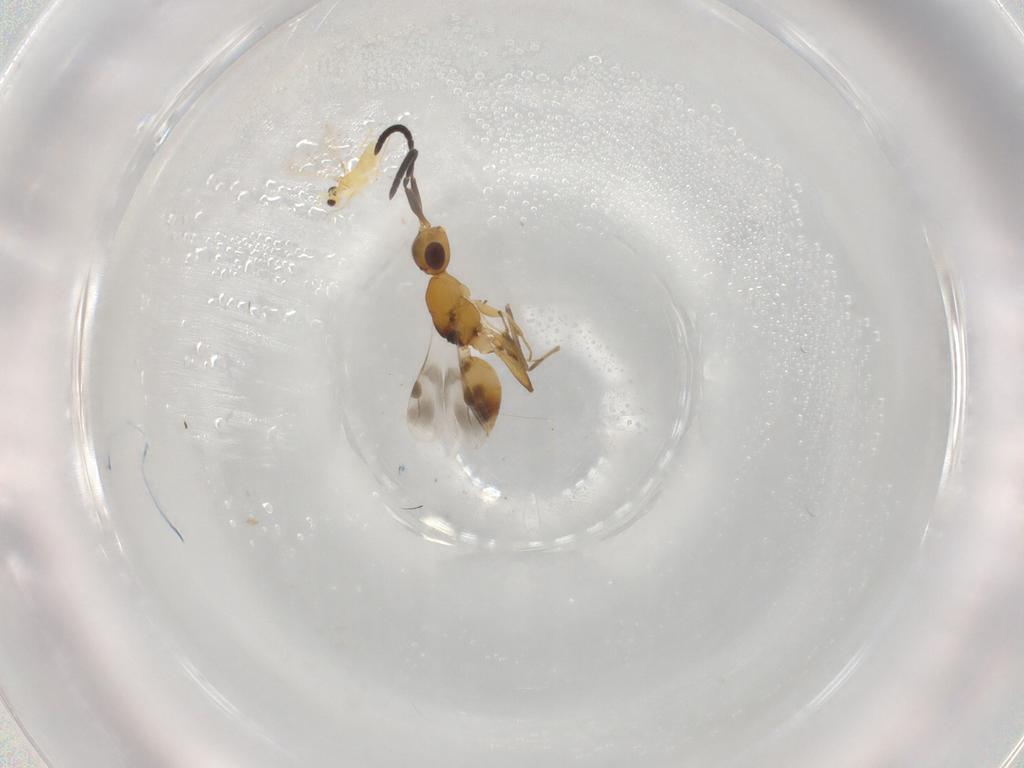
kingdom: Animalia
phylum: Arthropoda
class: Insecta
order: Hymenoptera
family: Mymaridae
